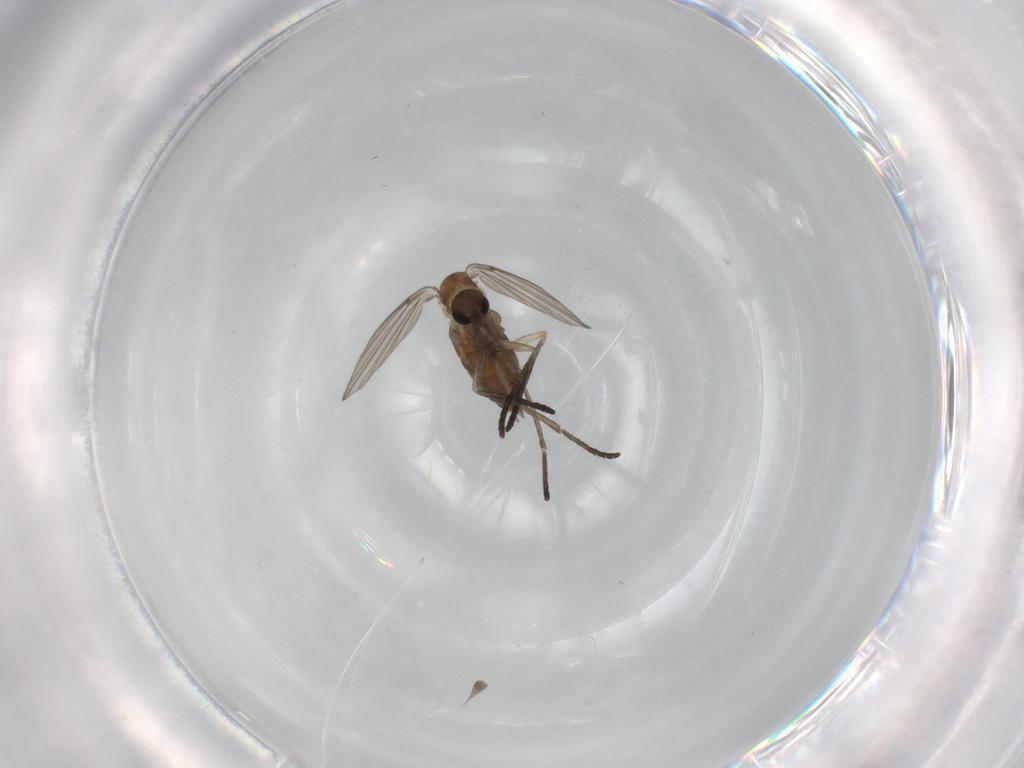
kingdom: Animalia
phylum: Arthropoda
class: Insecta
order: Diptera
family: Psychodidae
